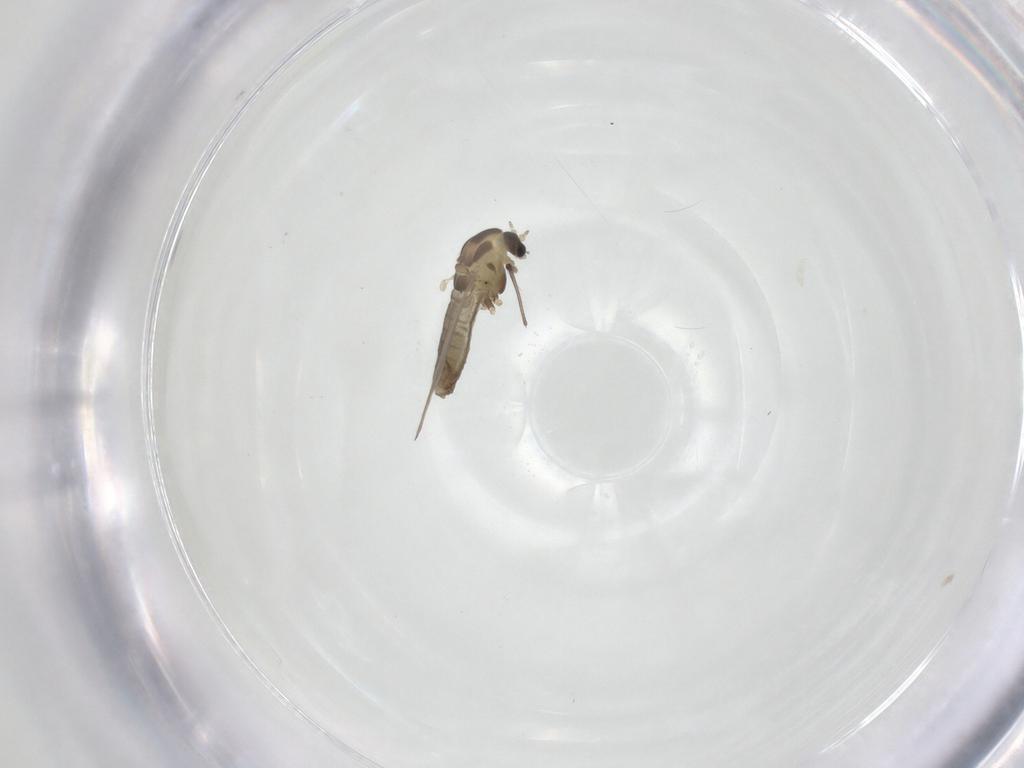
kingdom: Animalia
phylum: Arthropoda
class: Insecta
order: Diptera
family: Chironomidae
